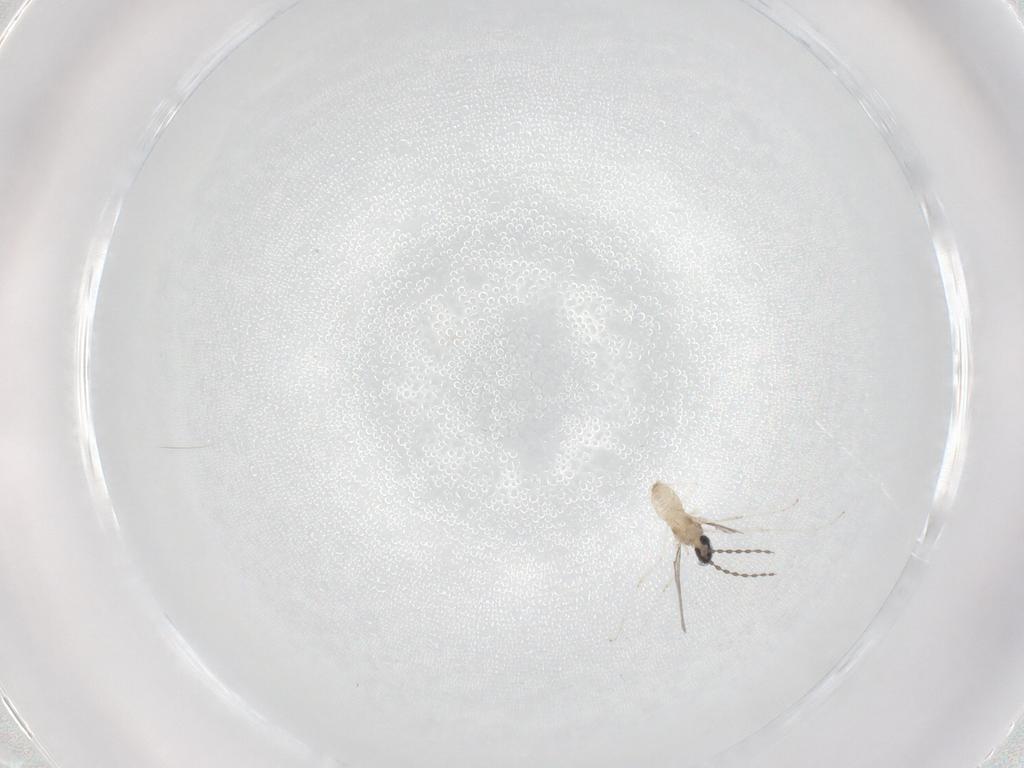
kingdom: Animalia
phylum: Arthropoda
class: Insecta
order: Diptera
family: Cecidomyiidae
